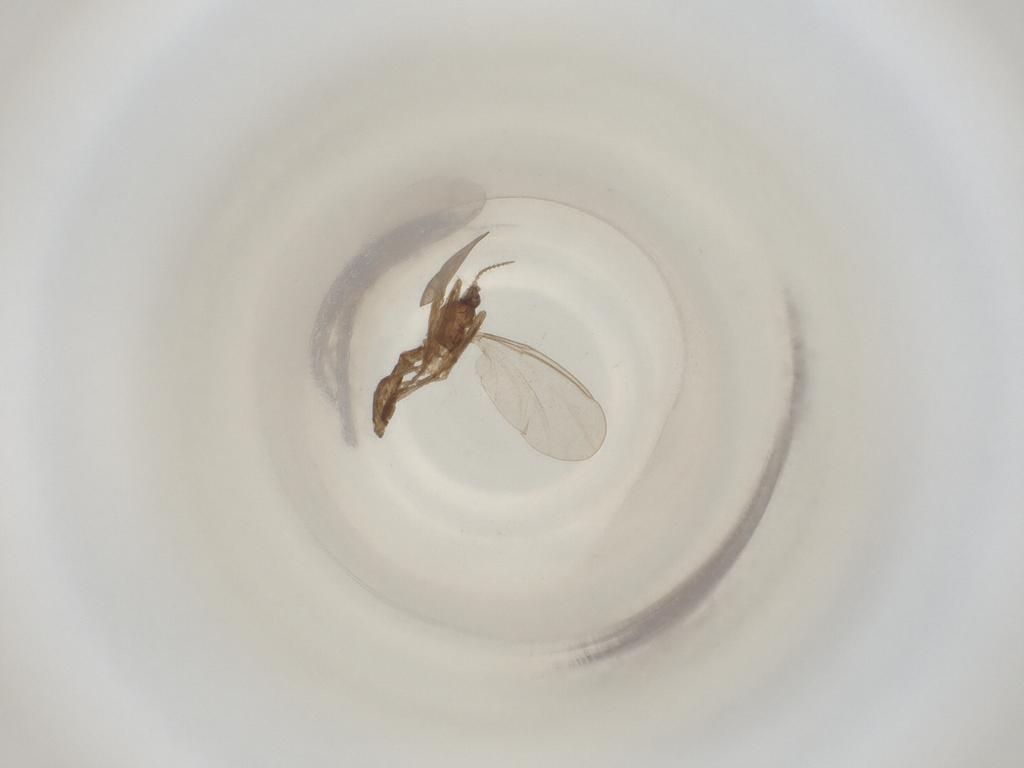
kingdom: Animalia
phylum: Arthropoda
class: Insecta
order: Diptera
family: Cecidomyiidae
